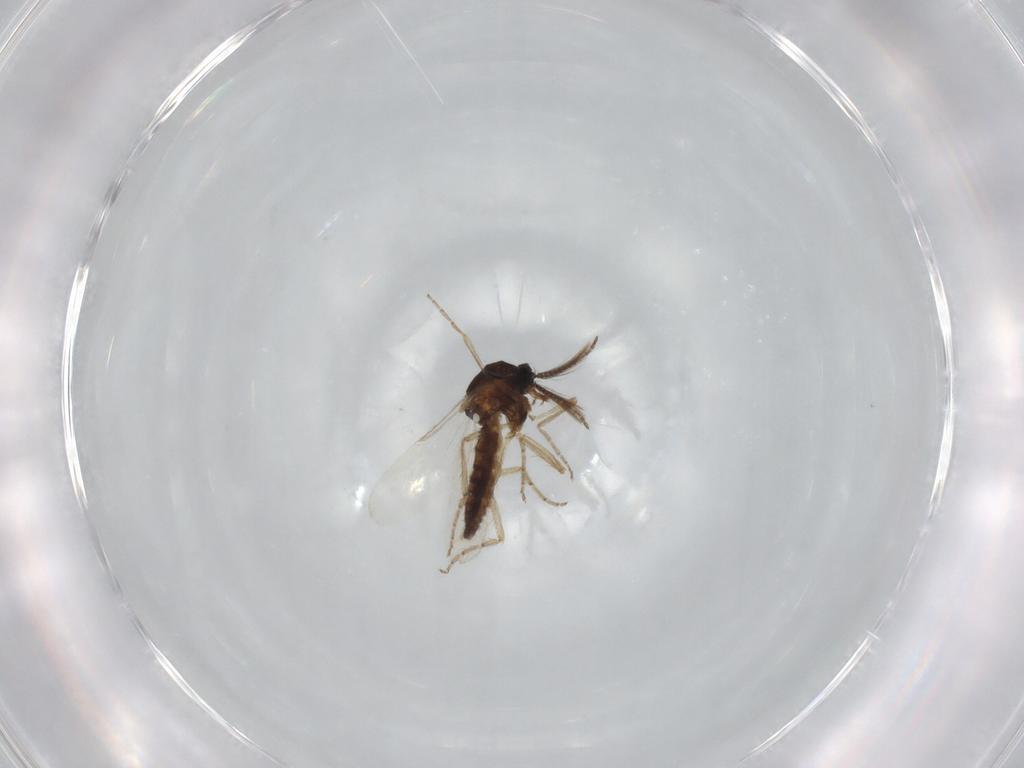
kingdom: Animalia
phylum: Arthropoda
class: Insecta
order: Diptera
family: Ceratopogonidae
